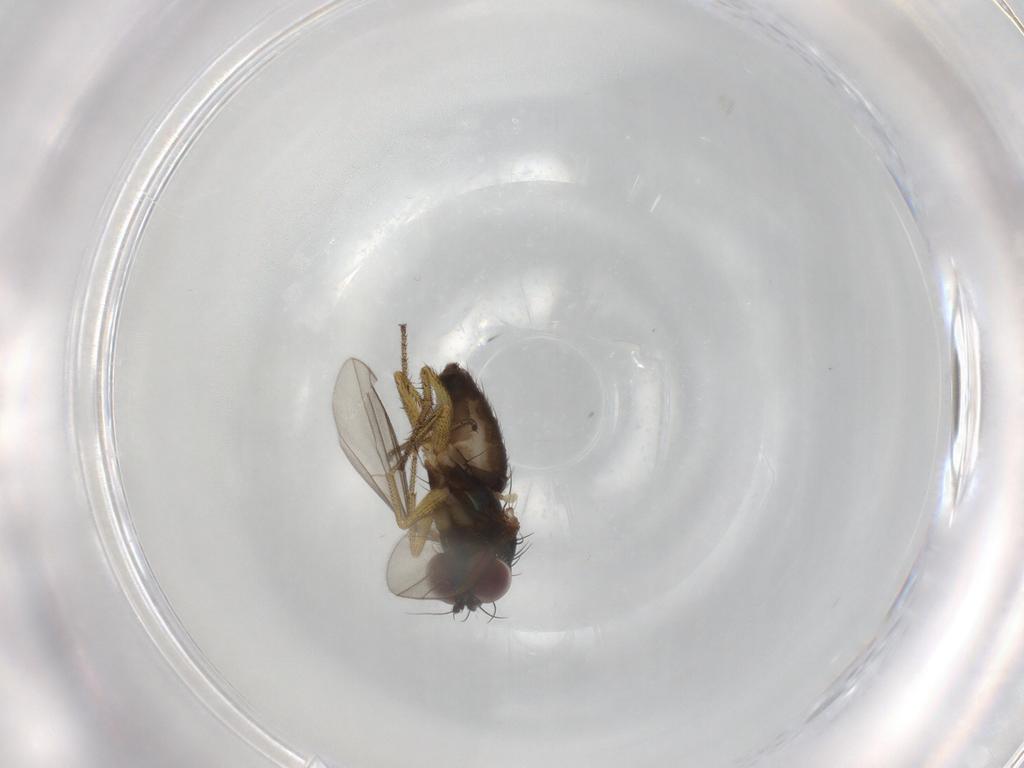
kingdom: Animalia
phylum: Arthropoda
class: Insecta
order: Diptera
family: Dolichopodidae
